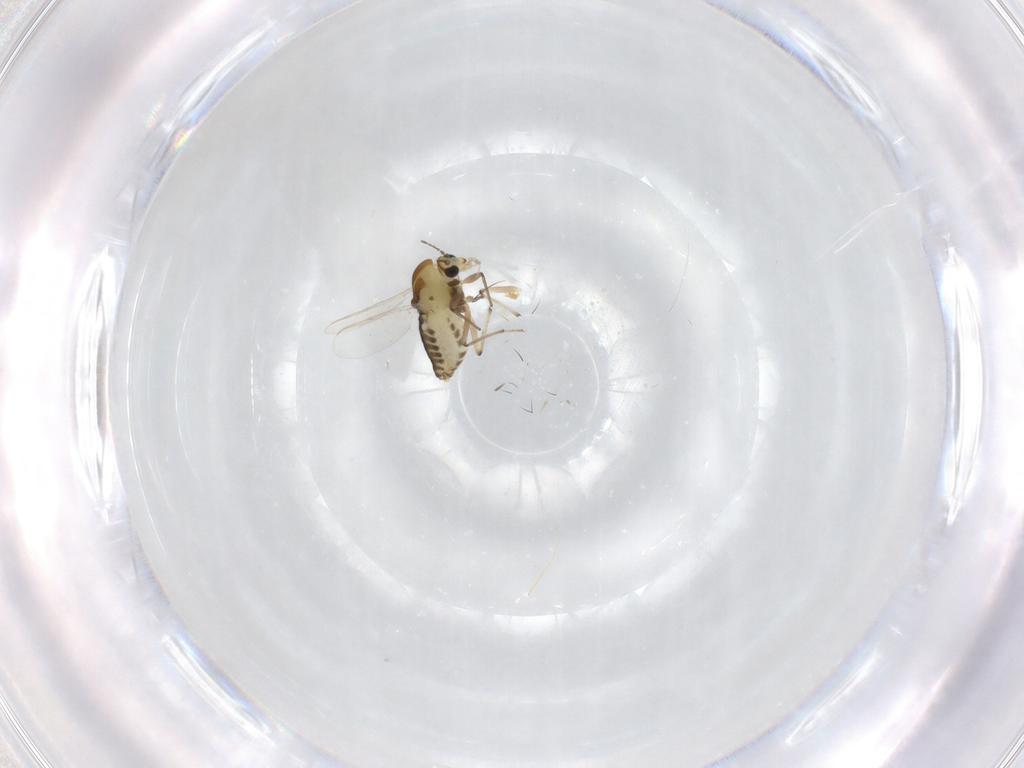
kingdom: Animalia
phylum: Arthropoda
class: Insecta
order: Diptera
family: Chironomidae
